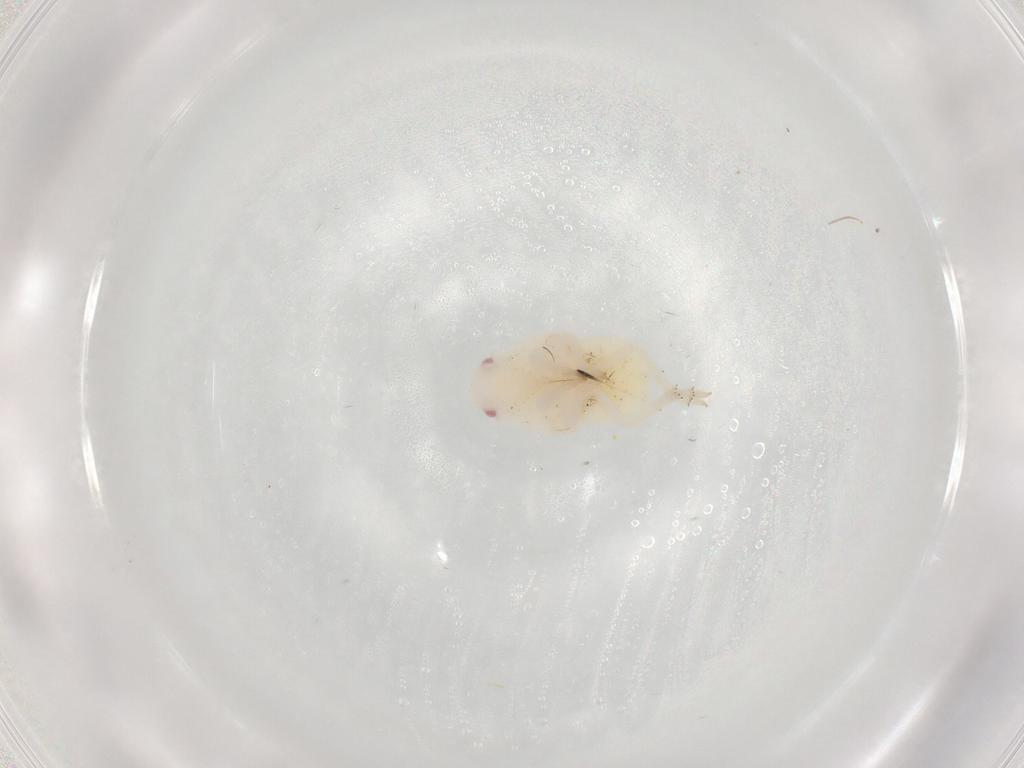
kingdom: Animalia
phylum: Arthropoda
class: Insecta
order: Hemiptera
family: Flatidae
